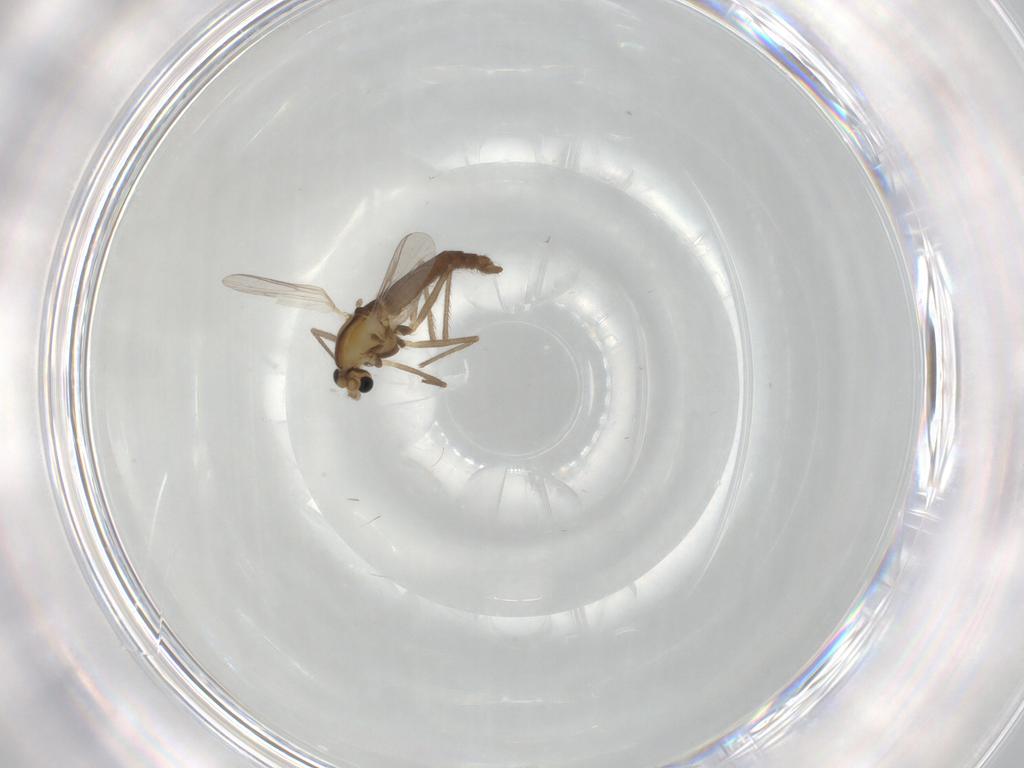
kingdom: Animalia
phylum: Arthropoda
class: Insecta
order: Diptera
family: Chironomidae
